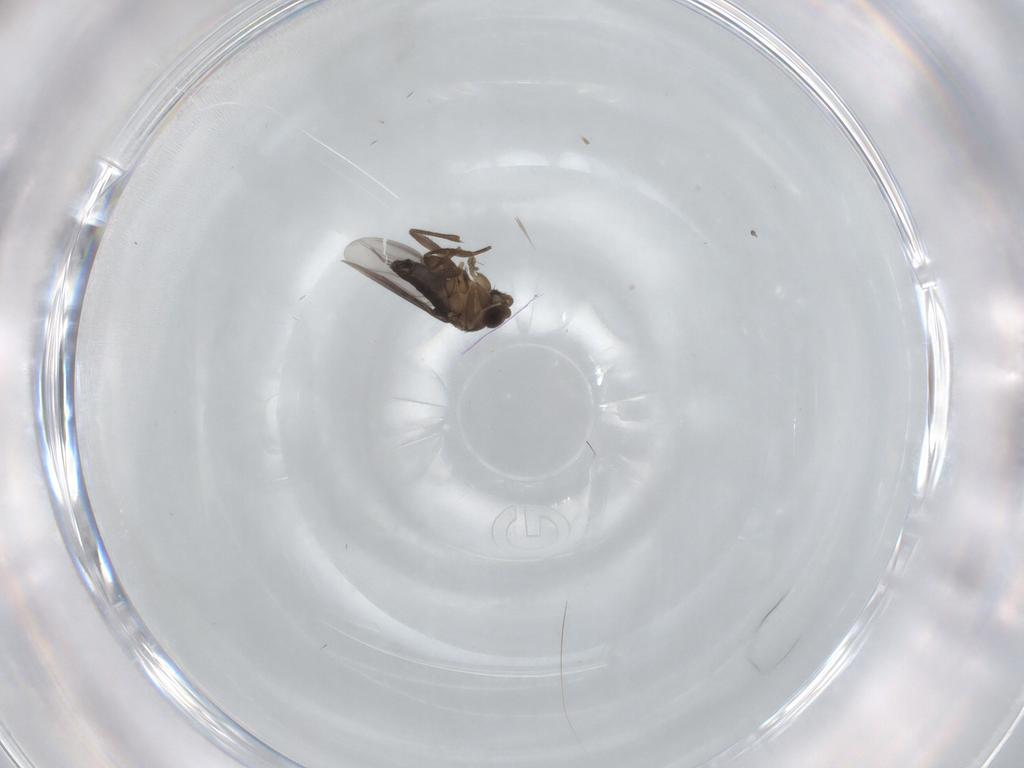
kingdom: Animalia
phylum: Arthropoda
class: Insecta
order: Diptera
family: Phoridae
